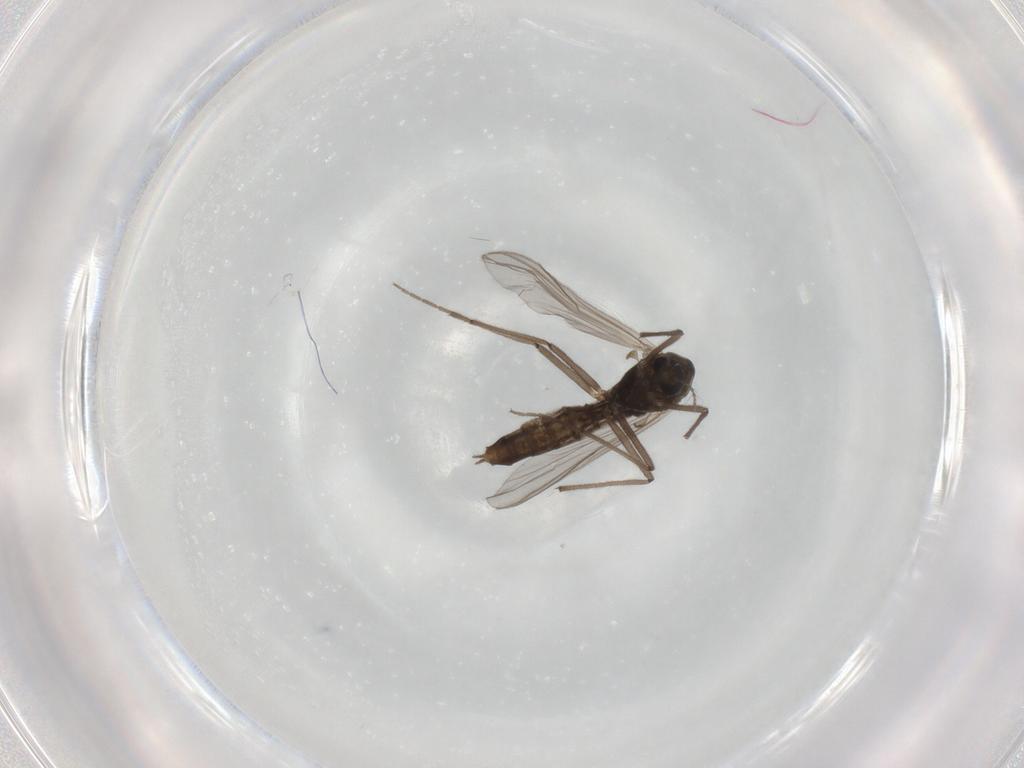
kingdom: Animalia
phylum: Arthropoda
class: Insecta
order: Diptera
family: Chironomidae
